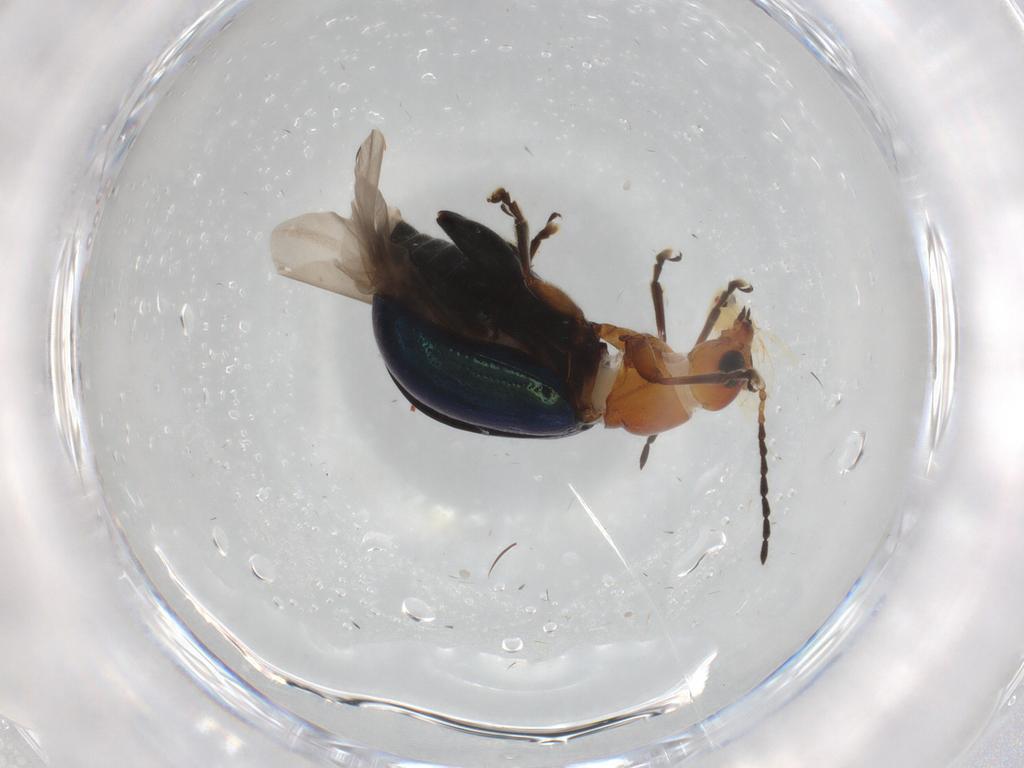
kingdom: Animalia
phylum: Arthropoda
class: Insecta
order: Coleoptera
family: Chrysomelidae
